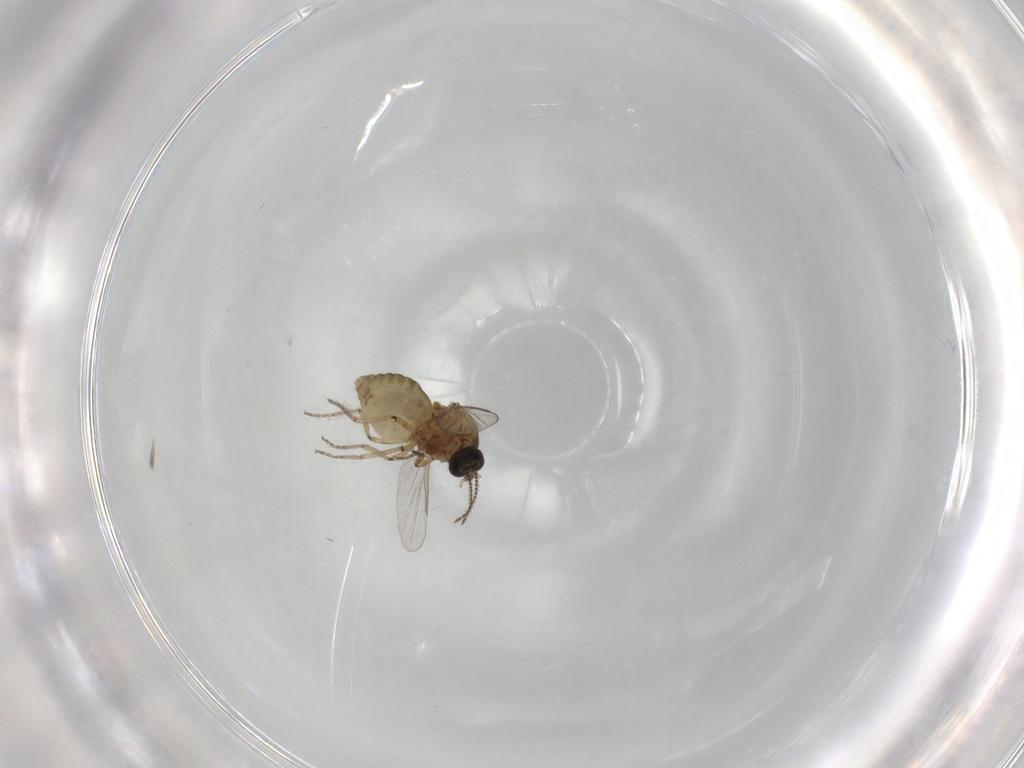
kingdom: Animalia
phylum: Arthropoda
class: Insecta
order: Diptera
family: Ceratopogonidae
